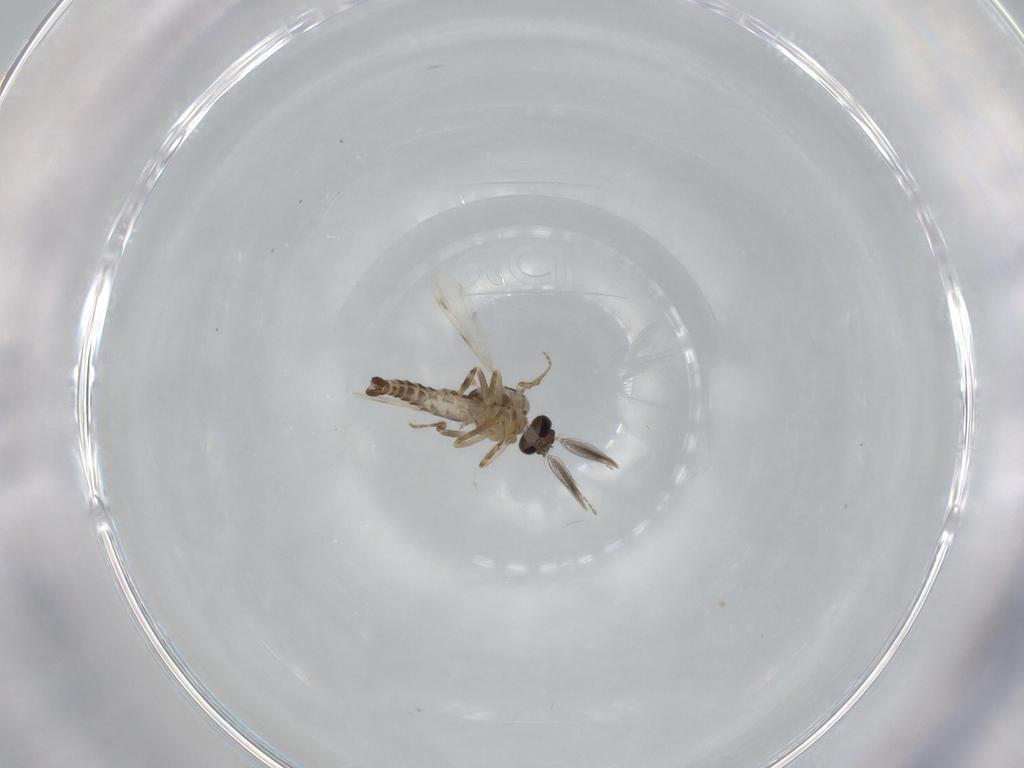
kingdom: Animalia
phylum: Arthropoda
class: Insecta
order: Diptera
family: Ceratopogonidae
